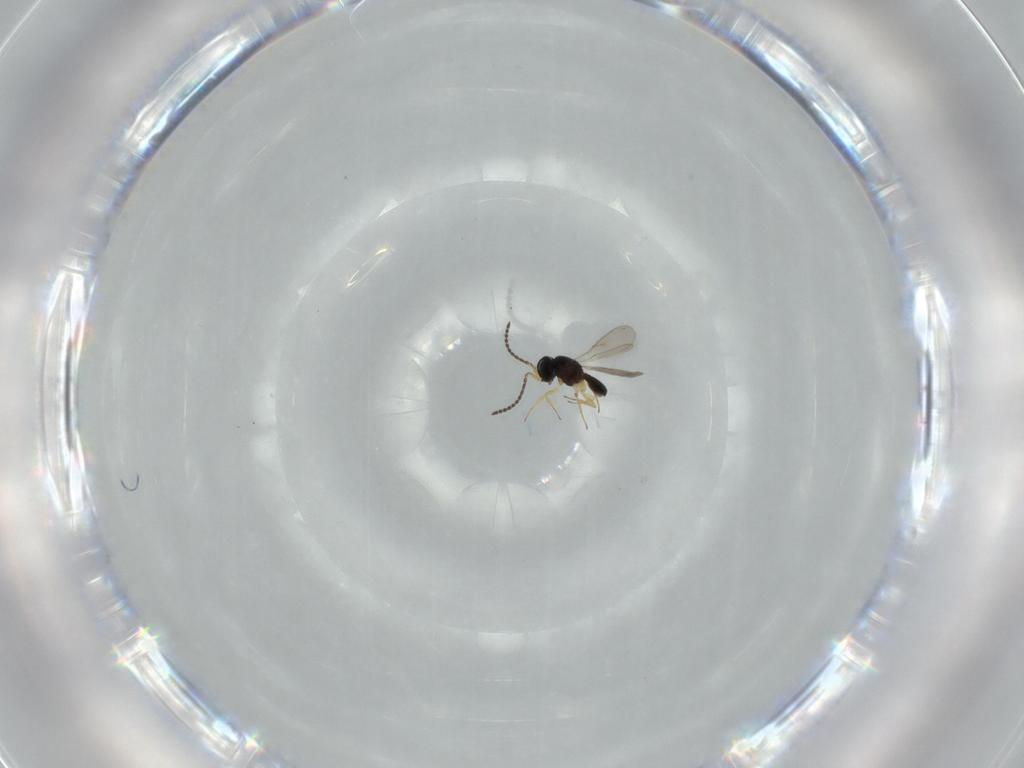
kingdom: Animalia
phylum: Arthropoda
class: Insecta
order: Hymenoptera
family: Scelionidae
